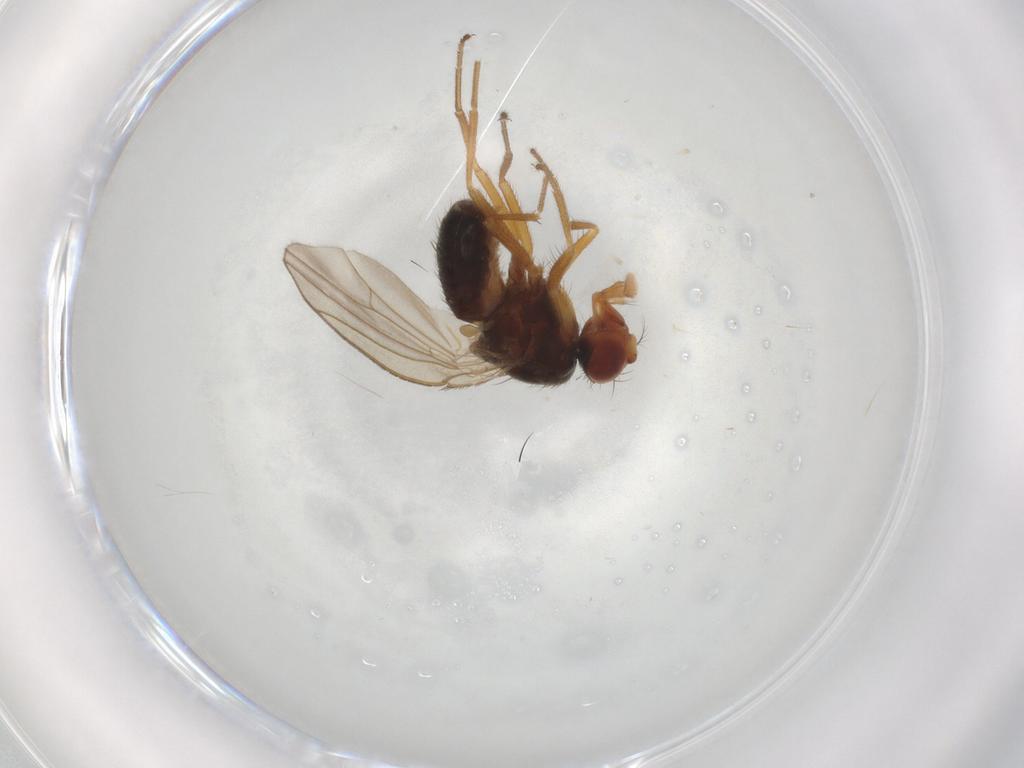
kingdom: Animalia
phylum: Arthropoda
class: Insecta
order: Diptera
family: Drosophilidae
